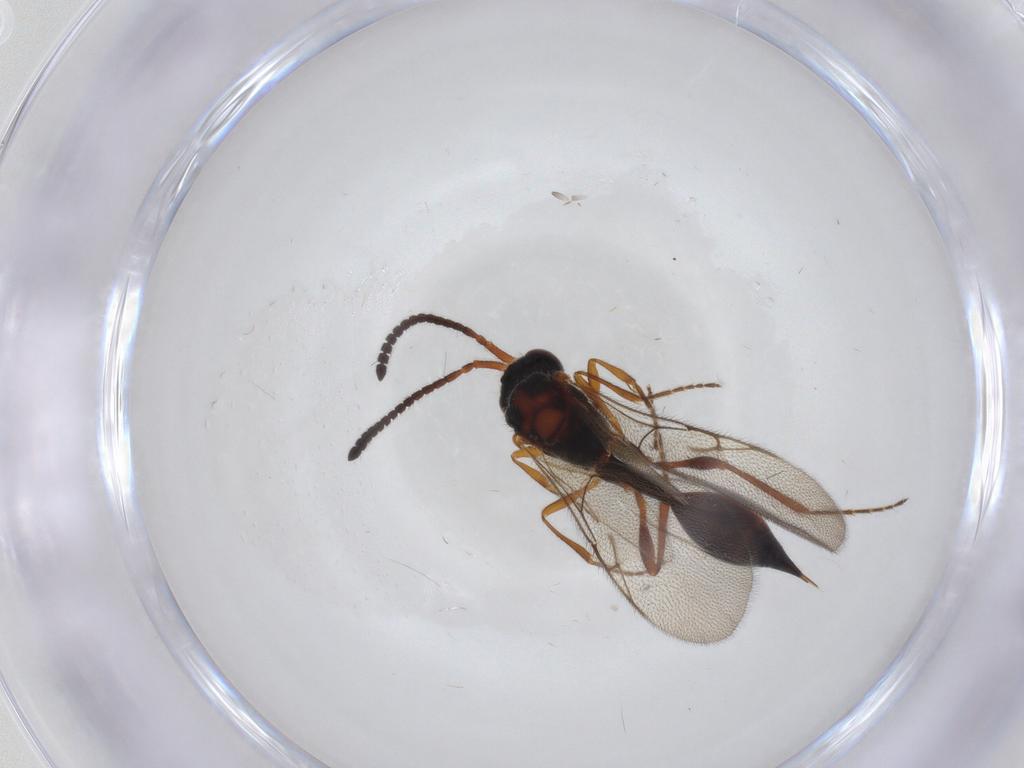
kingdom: Animalia
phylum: Arthropoda
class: Insecta
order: Hymenoptera
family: Diapriidae
